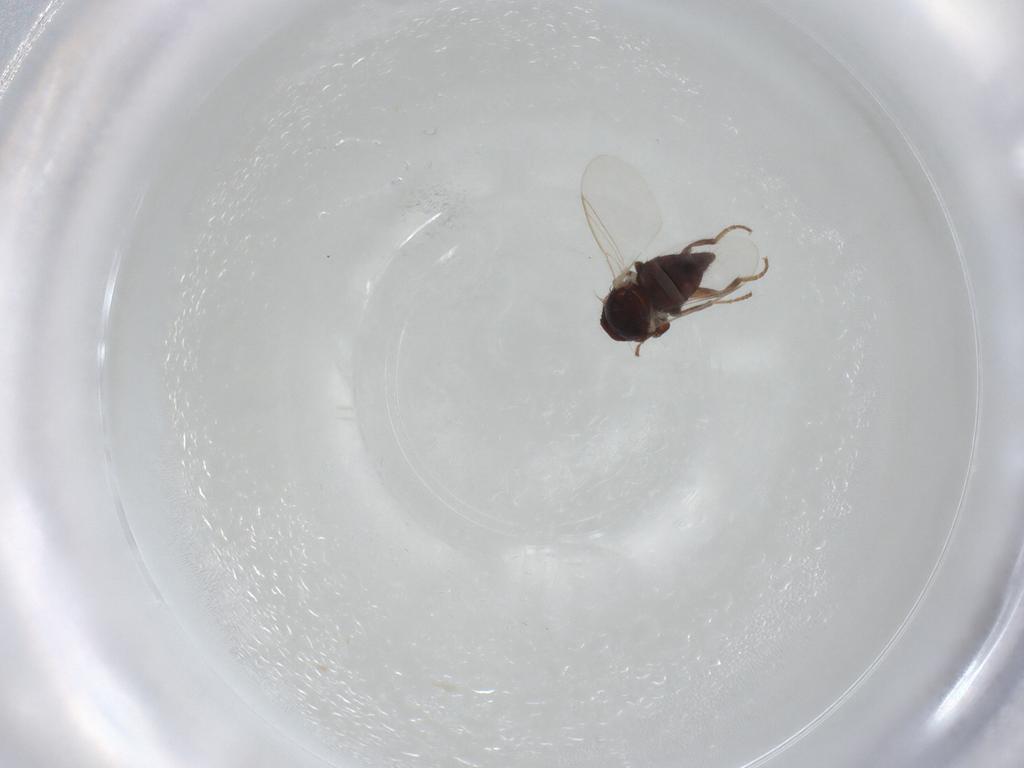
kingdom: Animalia
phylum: Arthropoda
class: Insecta
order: Diptera
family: Agromyzidae
